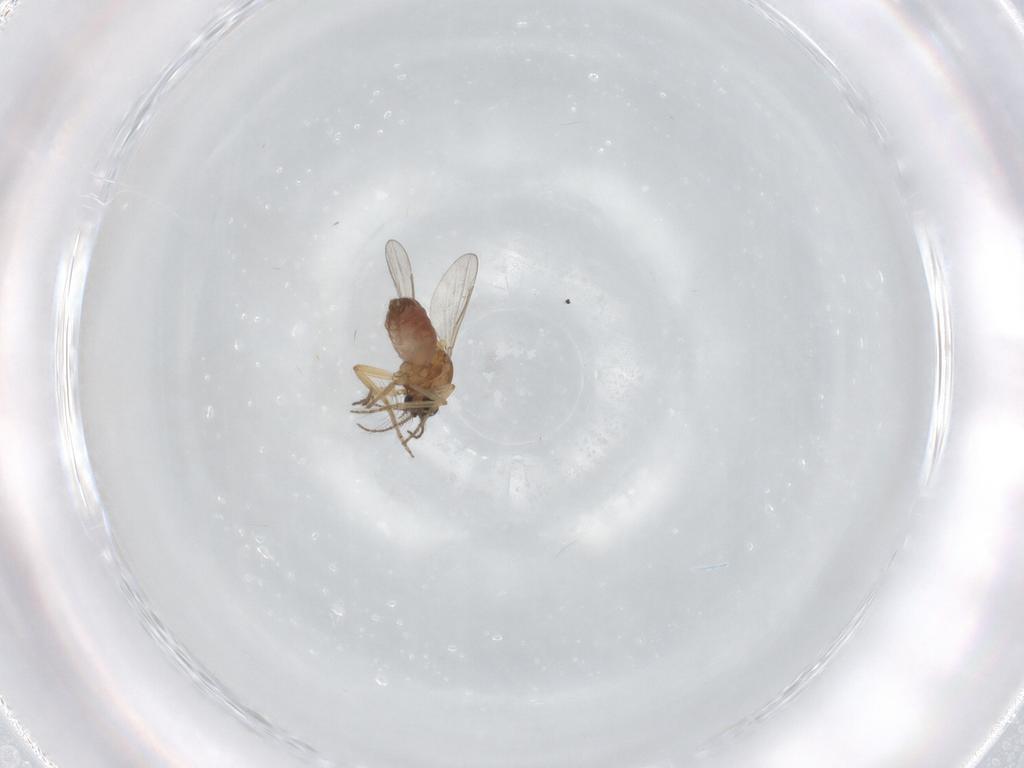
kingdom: Animalia
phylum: Arthropoda
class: Insecta
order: Diptera
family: Chironomidae
